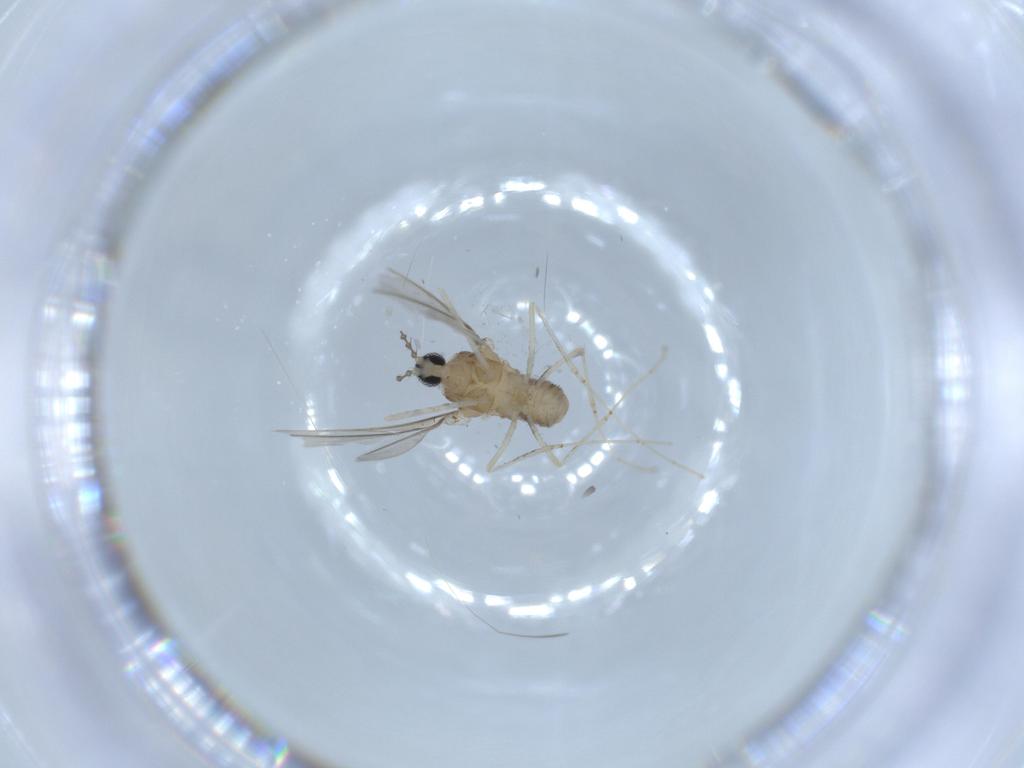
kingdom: Animalia
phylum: Arthropoda
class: Insecta
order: Diptera
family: Cecidomyiidae
